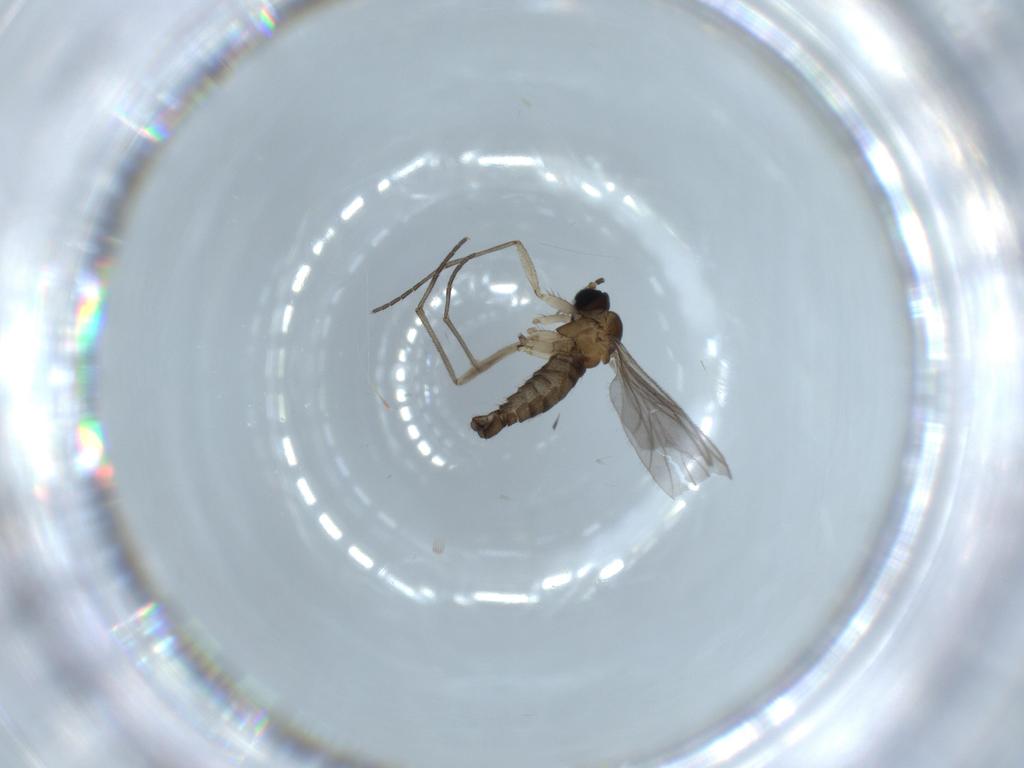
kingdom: Animalia
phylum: Arthropoda
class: Insecta
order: Diptera
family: Sciaridae
